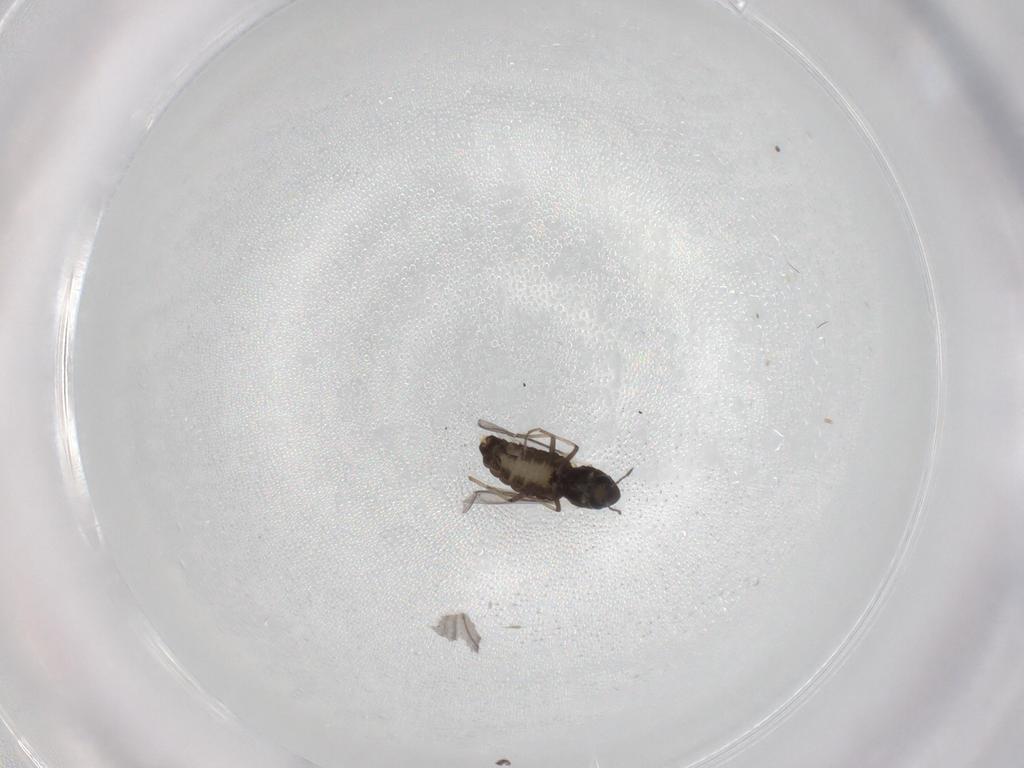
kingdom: Animalia
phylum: Arthropoda
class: Insecta
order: Diptera
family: Chironomidae
